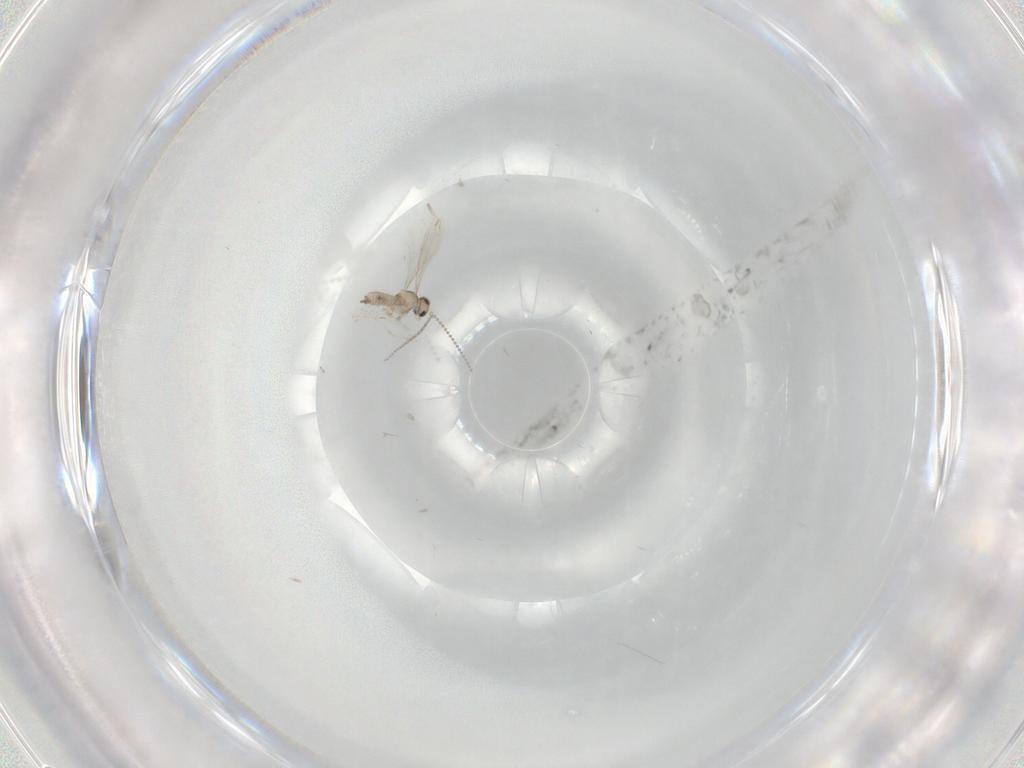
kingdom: Animalia
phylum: Arthropoda
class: Insecta
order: Diptera
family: Cecidomyiidae
